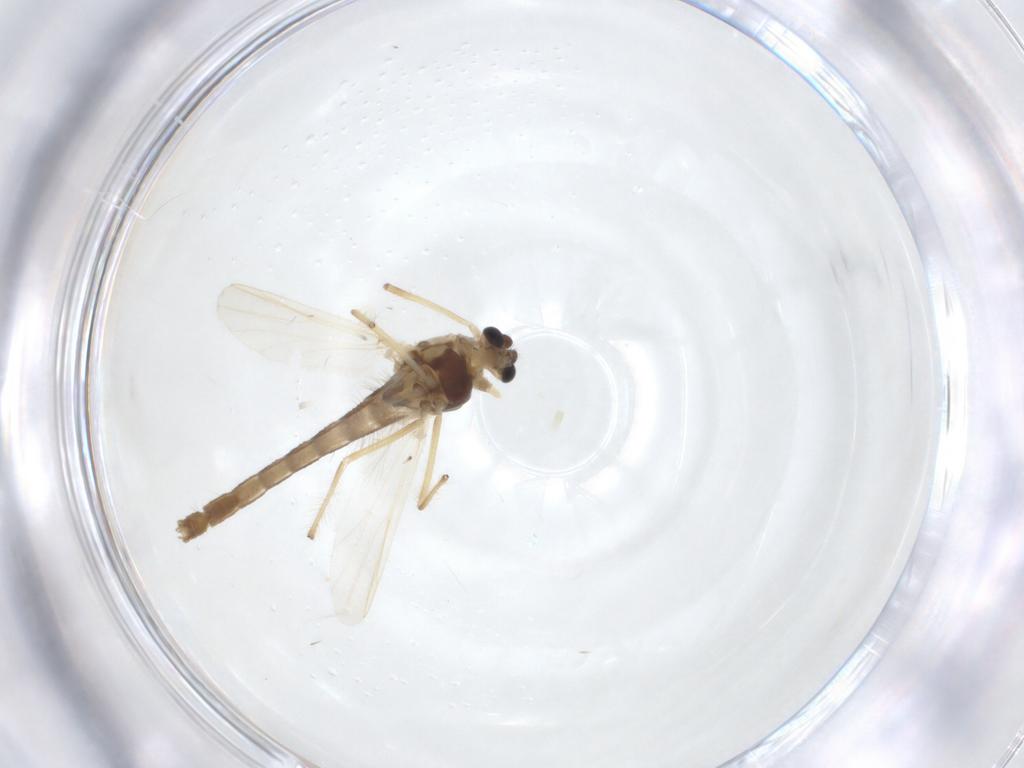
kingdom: Animalia
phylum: Arthropoda
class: Insecta
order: Diptera
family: Chironomidae
